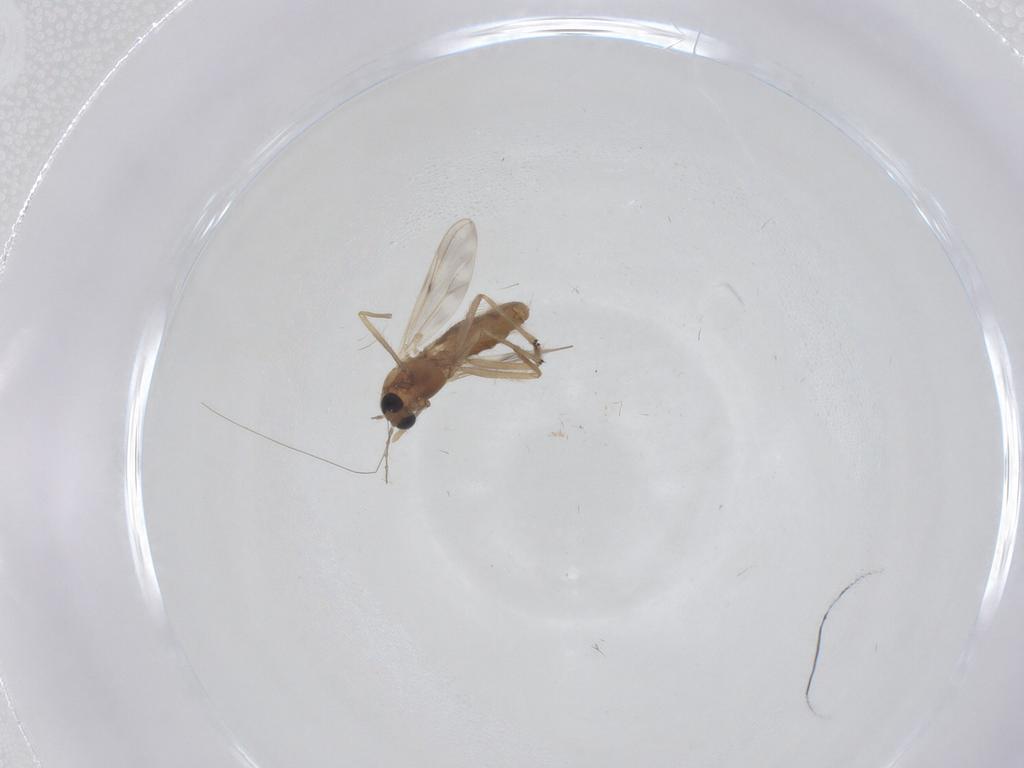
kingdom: Animalia
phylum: Arthropoda
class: Insecta
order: Diptera
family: Chironomidae
